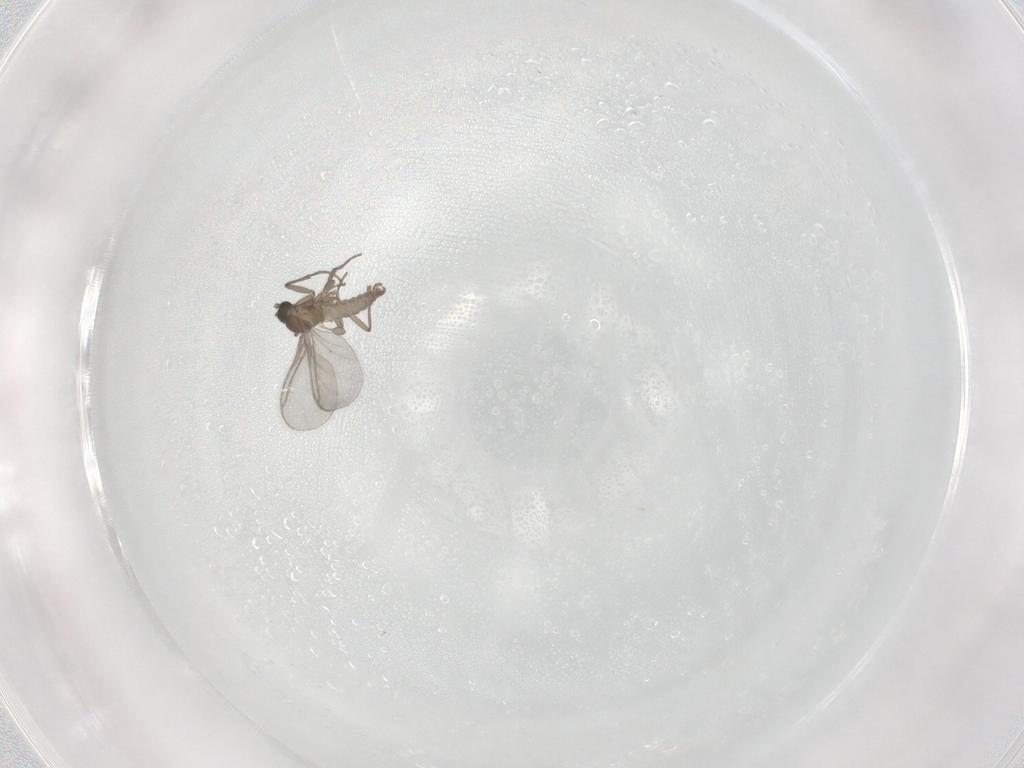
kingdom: Animalia
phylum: Arthropoda
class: Insecta
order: Diptera
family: Sciaridae
